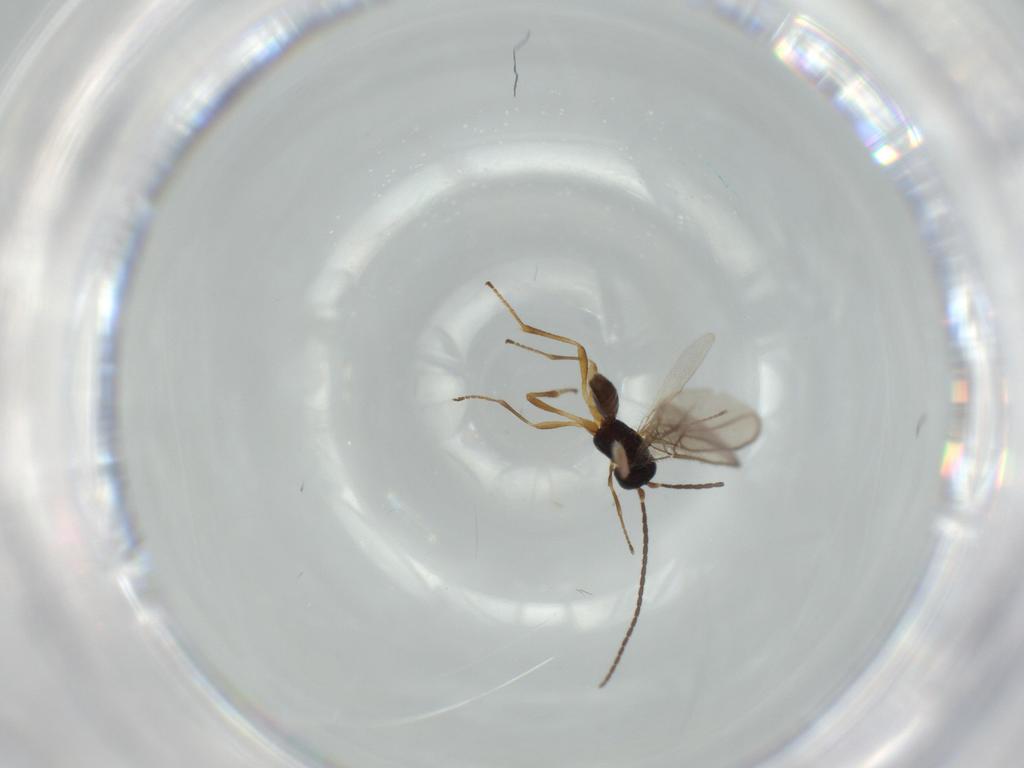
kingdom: Animalia
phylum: Arthropoda
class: Insecta
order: Hymenoptera
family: Braconidae
